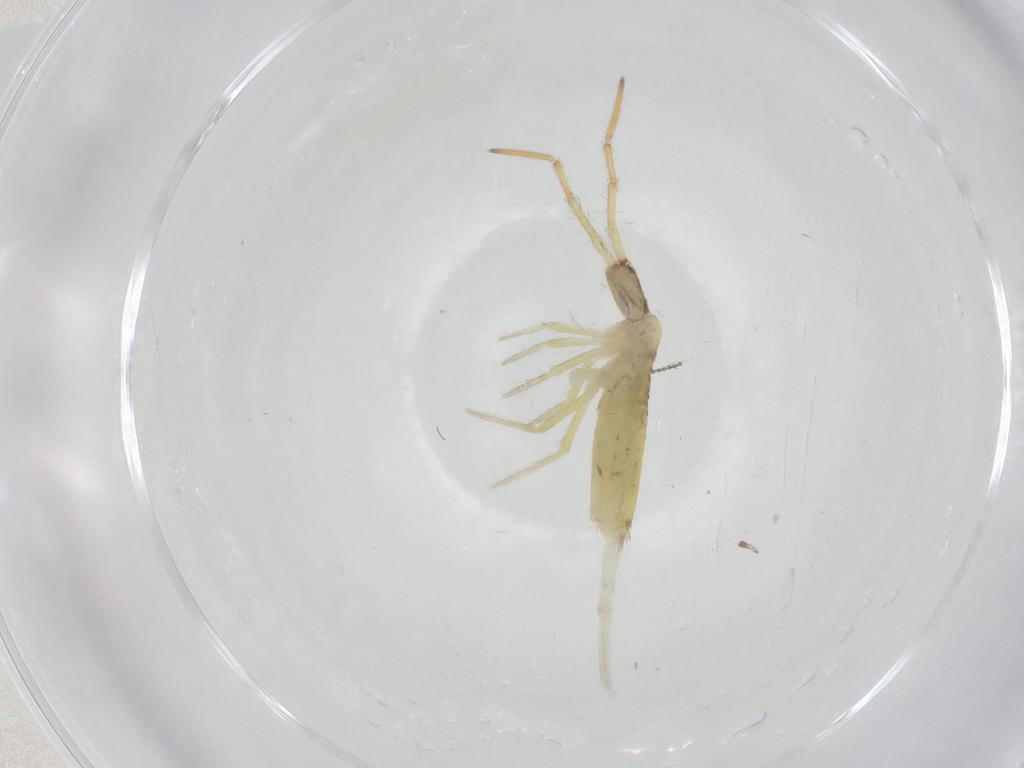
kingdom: Animalia
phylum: Arthropoda
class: Collembola
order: Entomobryomorpha
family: Entomobryidae
